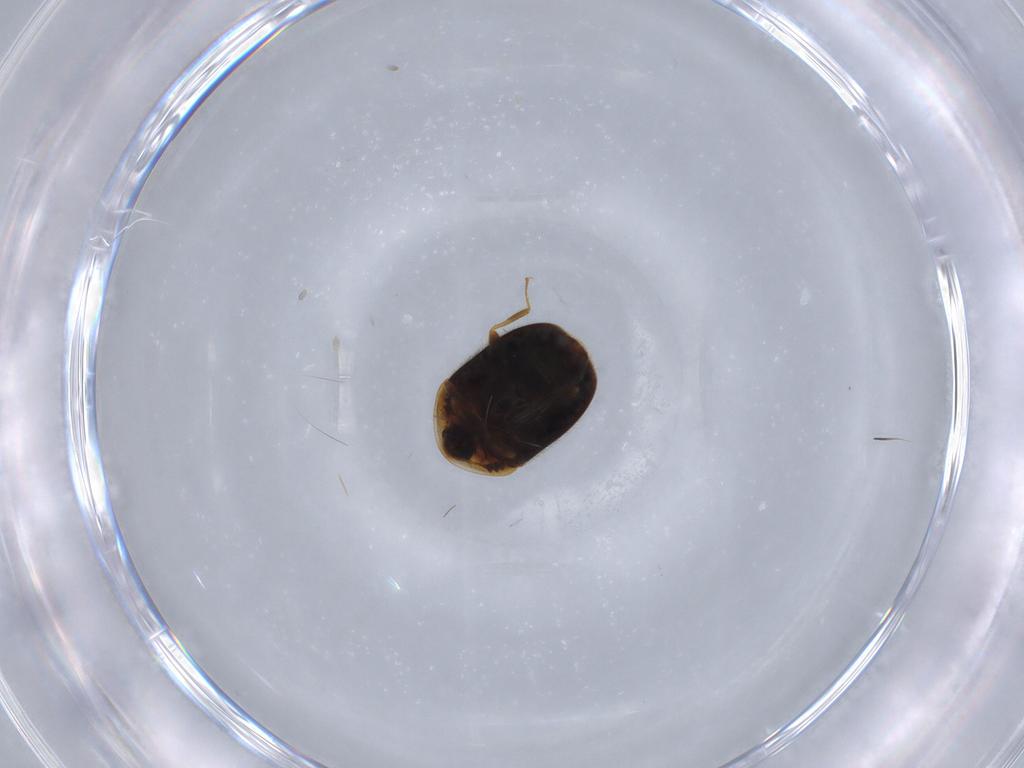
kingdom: Animalia
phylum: Arthropoda
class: Insecta
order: Coleoptera
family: Corylophidae
